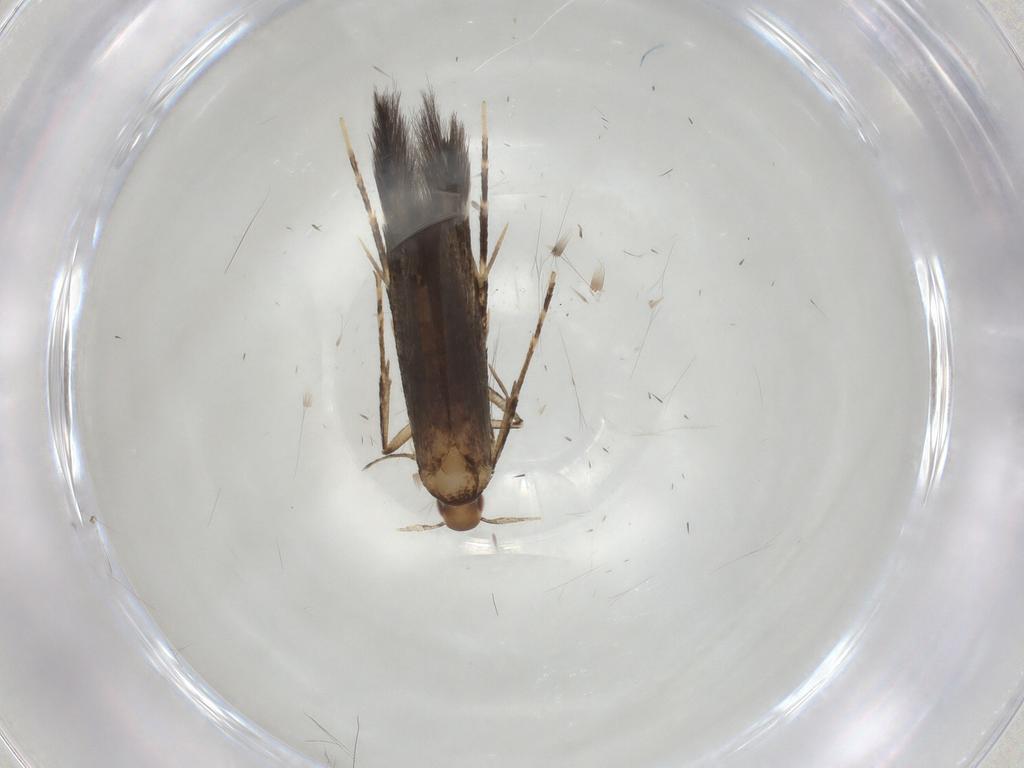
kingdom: Animalia
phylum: Arthropoda
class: Insecta
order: Lepidoptera
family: Cosmopterigidae
